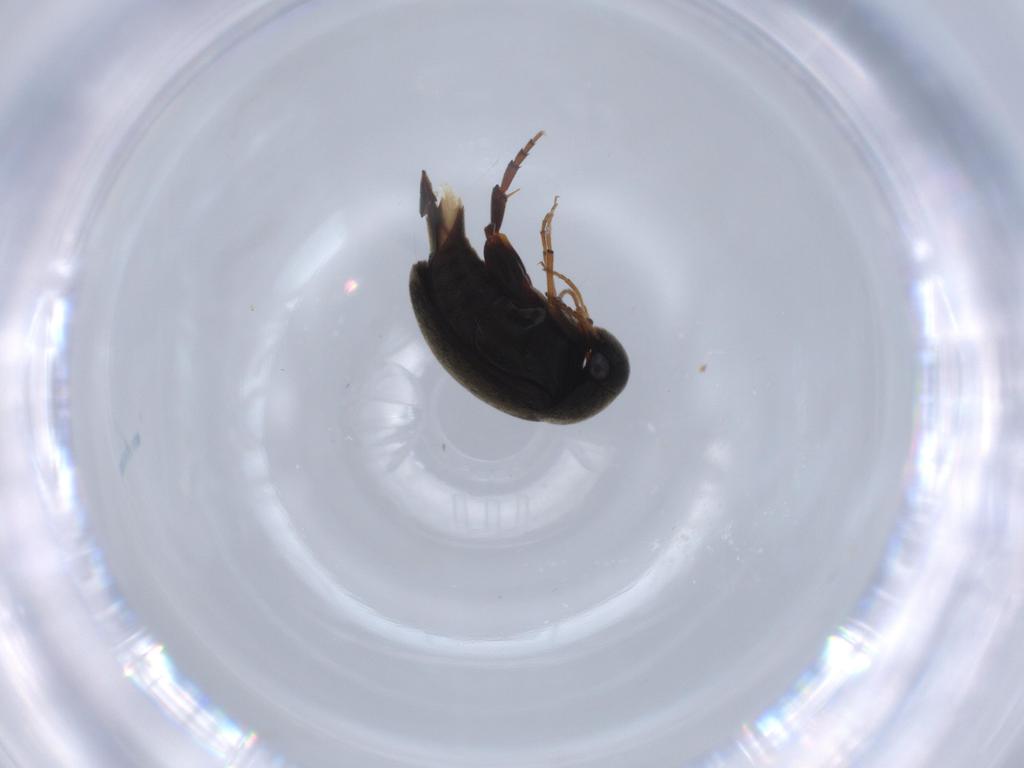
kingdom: Animalia
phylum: Arthropoda
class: Insecta
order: Coleoptera
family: Mordellidae
